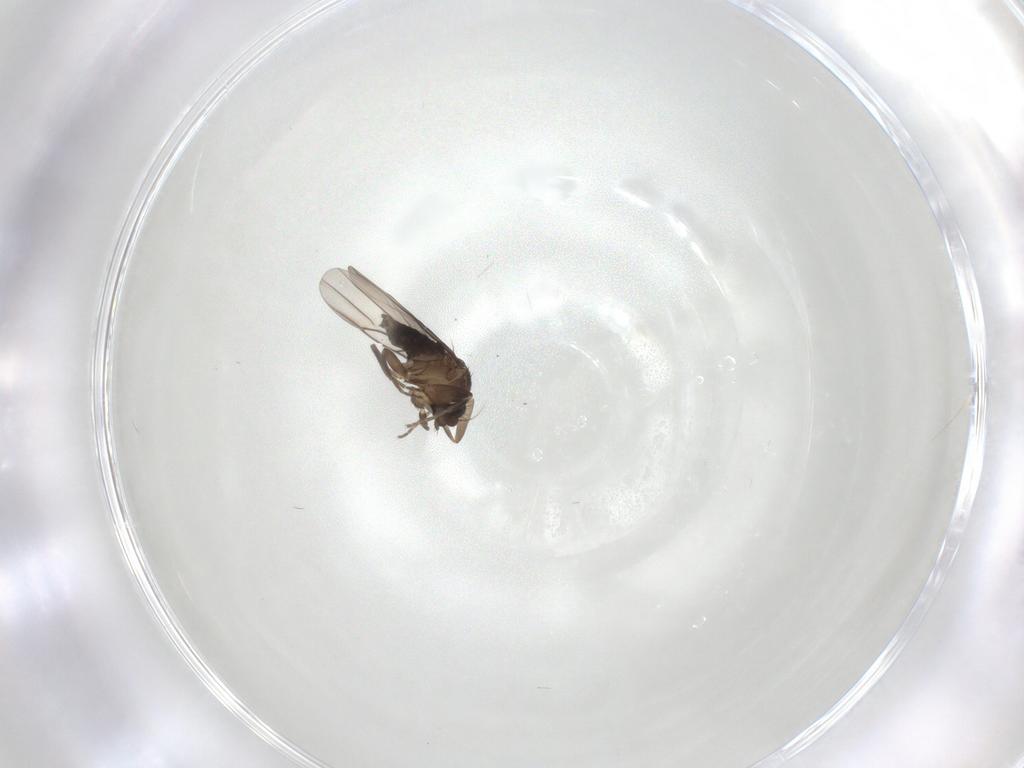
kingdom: Animalia
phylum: Arthropoda
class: Insecta
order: Diptera
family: Phoridae
